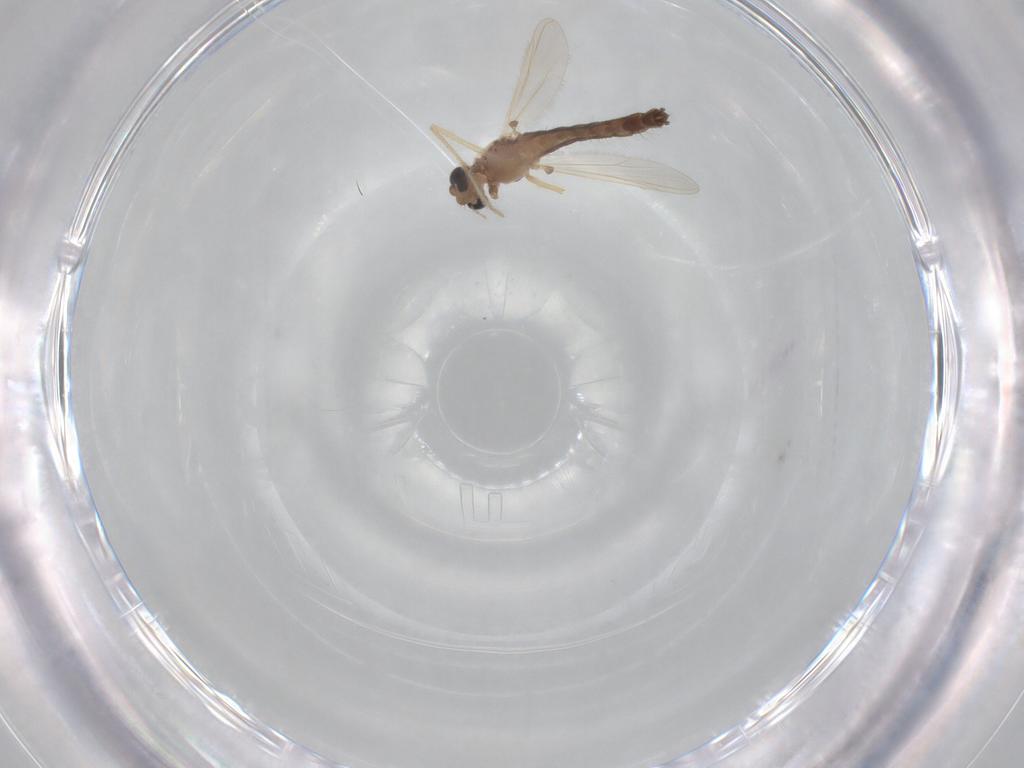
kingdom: Animalia
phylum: Arthropoda
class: Insecta
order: Diptera
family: Chironomidae
